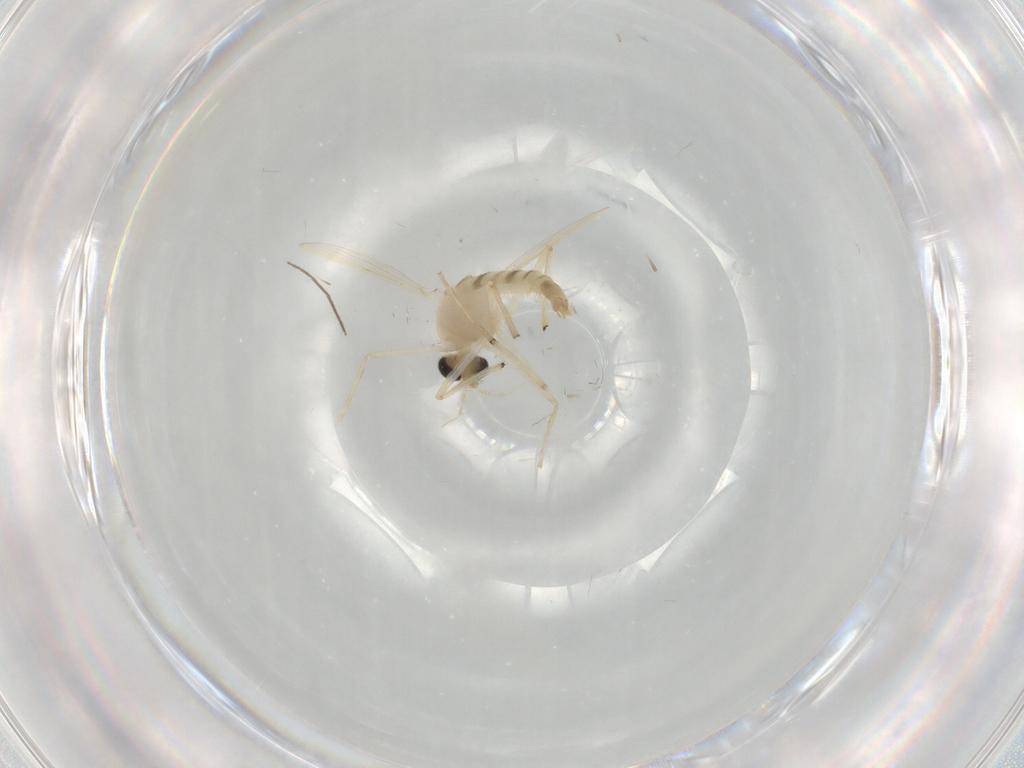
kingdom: Animalia
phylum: Arthropoda
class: Insecta
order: Diptera
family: Chironomidae
